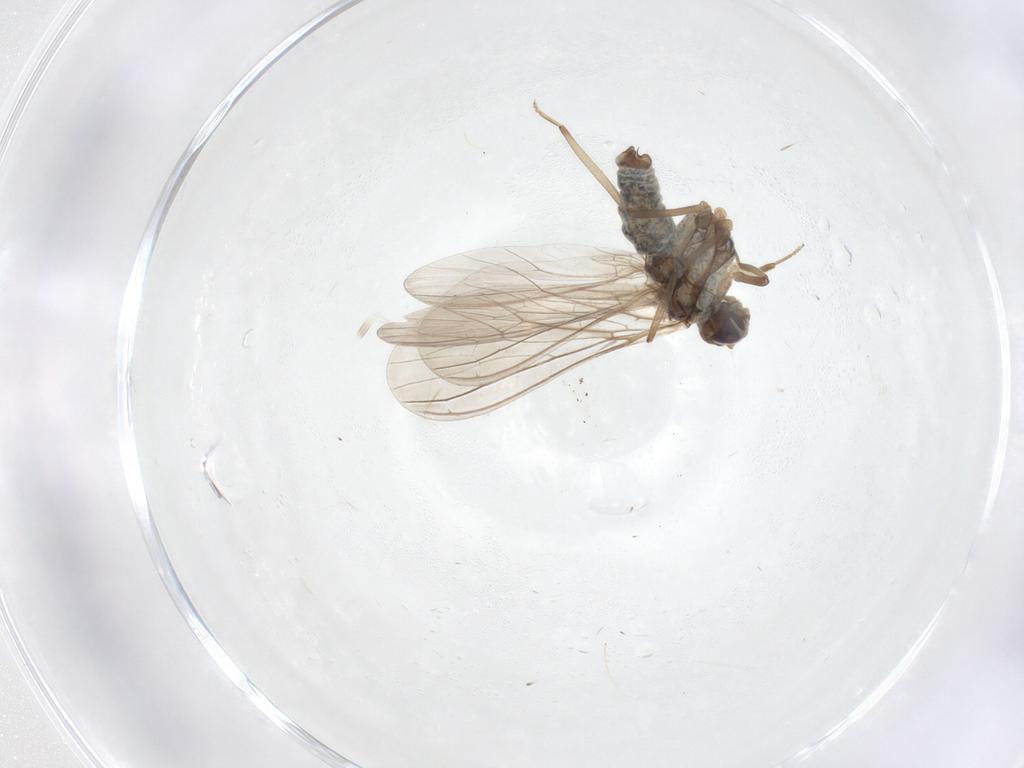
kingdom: Animalia
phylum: Arthropoda
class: Insecta
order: Neuroptera
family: Coniopterygidae
